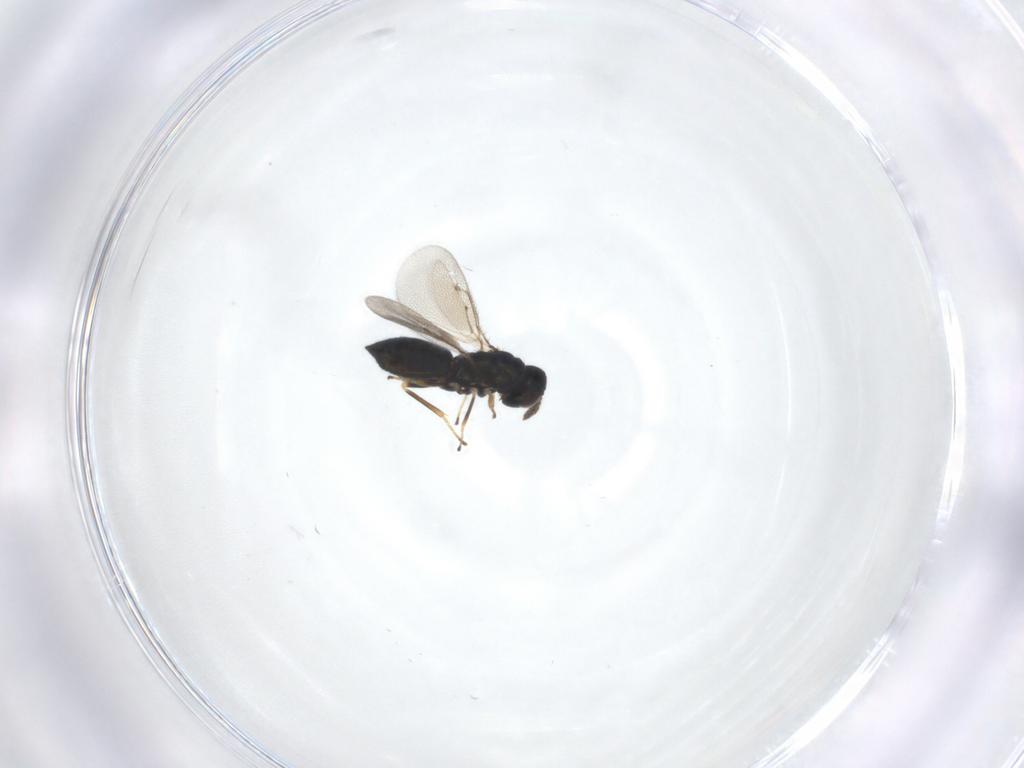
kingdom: Animalia
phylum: Arthropoda
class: Insecta
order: Hymenoptera
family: Eulophidae
